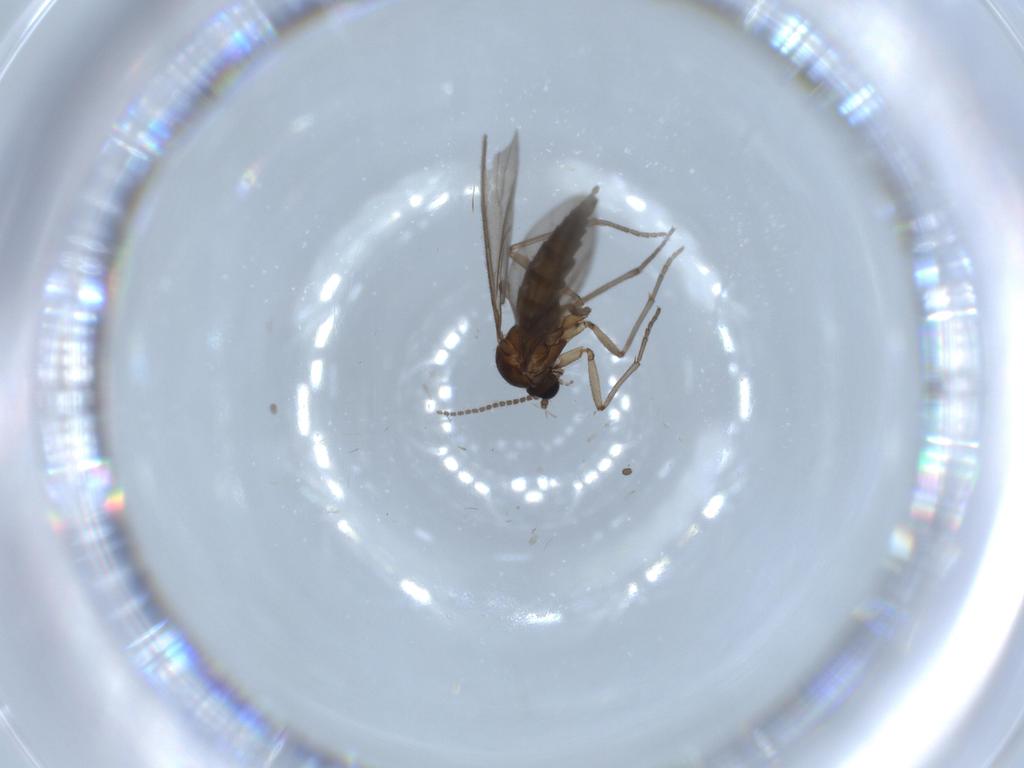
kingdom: Animalia
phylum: Arthropoda
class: Insecta
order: Diptera
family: Sciaridae
